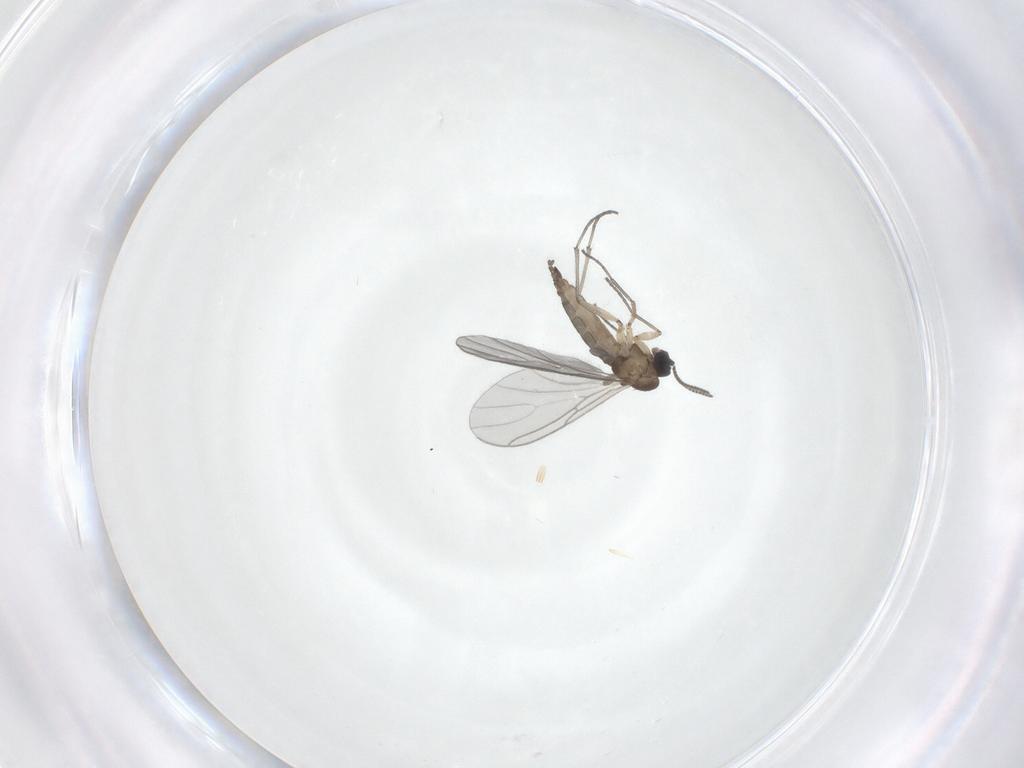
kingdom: Animalia
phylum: Arthropoda
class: Insecta
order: Diptera
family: Sciaridae
